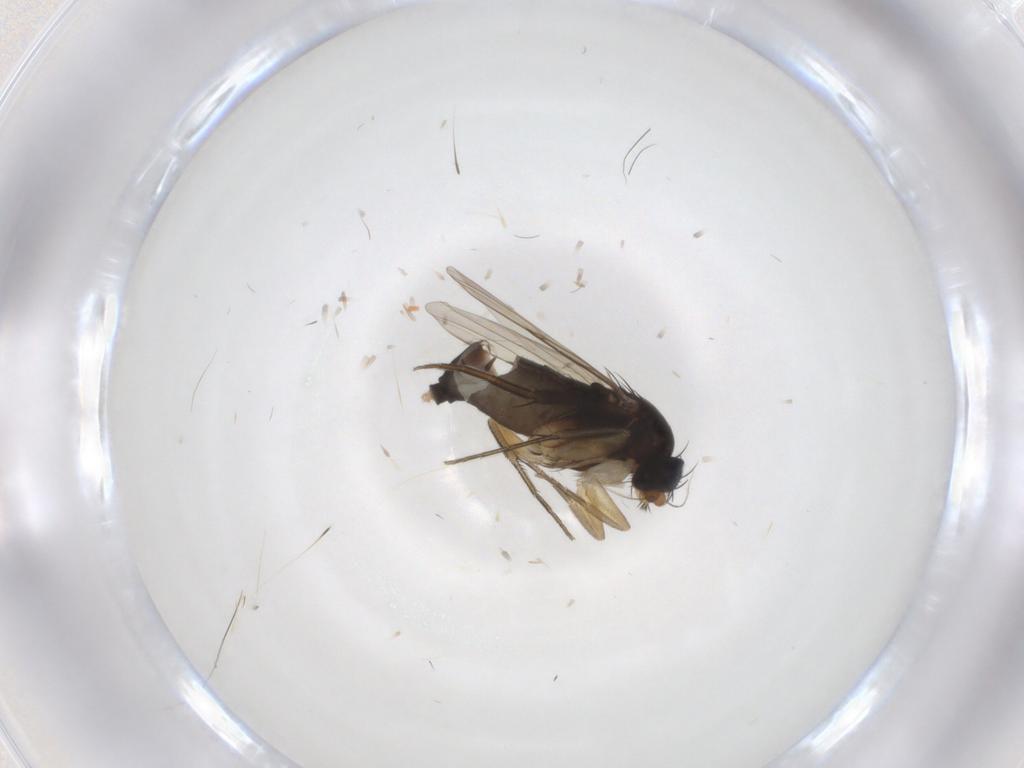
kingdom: Animalia
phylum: Arthropoda
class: Insecta
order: Diptera
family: Phoridae
